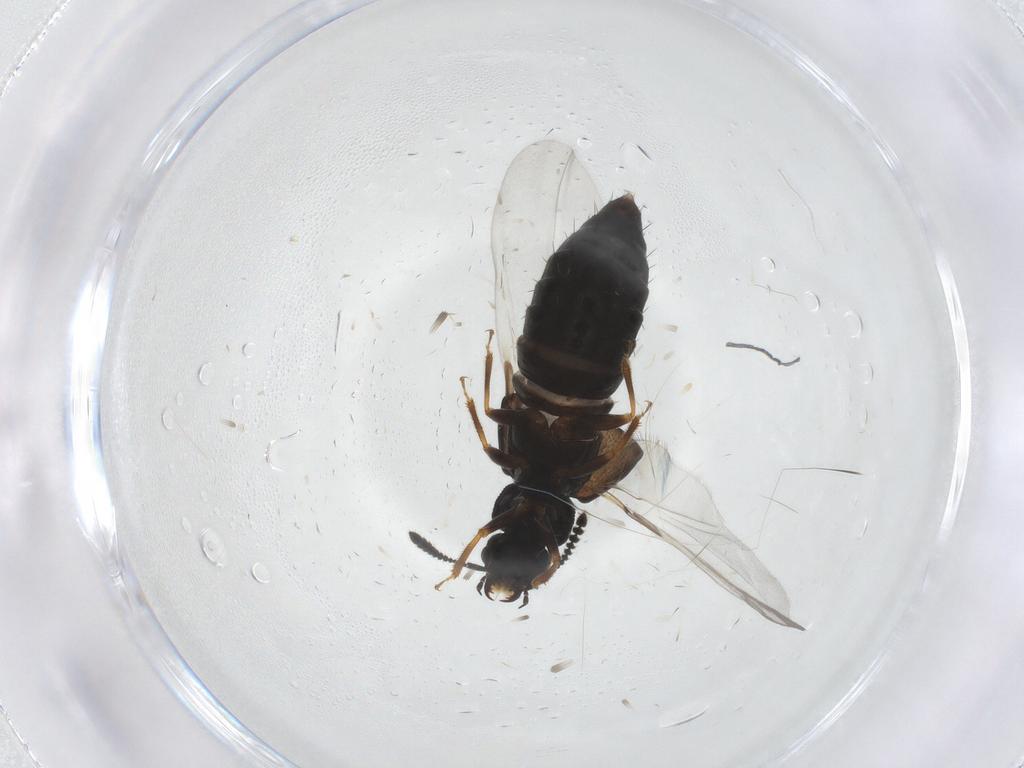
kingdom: Animalia
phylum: Arthropoda
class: Insecta
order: Coleoptera
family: Staphylinidae
